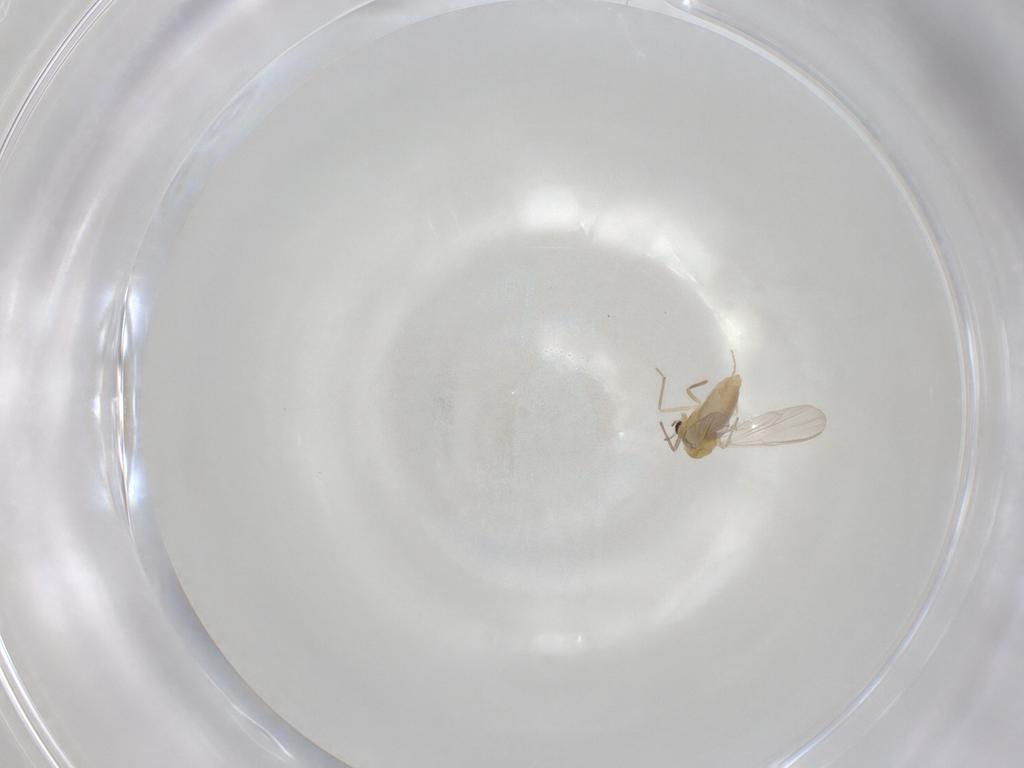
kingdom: Animalia
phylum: Arthropoda
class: Insecta
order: Diptera
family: Chironomidae
